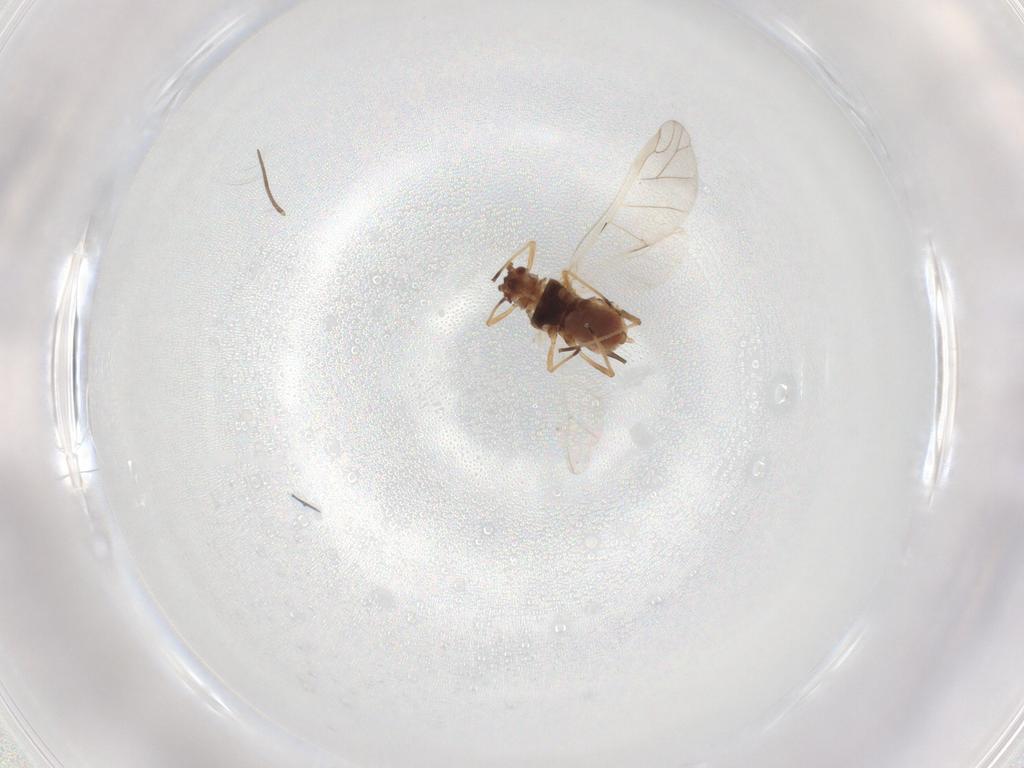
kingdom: Animalia
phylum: Arthropoda
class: Insecta
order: Hemiptera
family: Aphididae
